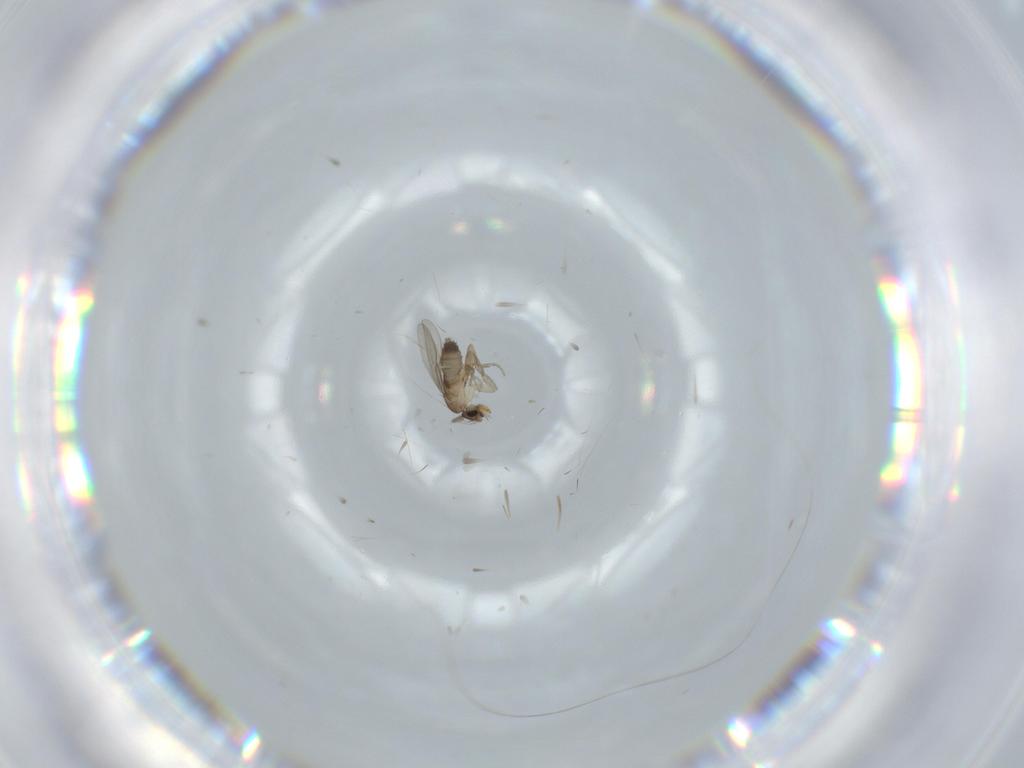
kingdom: Animalia
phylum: Arthropoda
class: Insecta
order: Diptera
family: Phoridae
